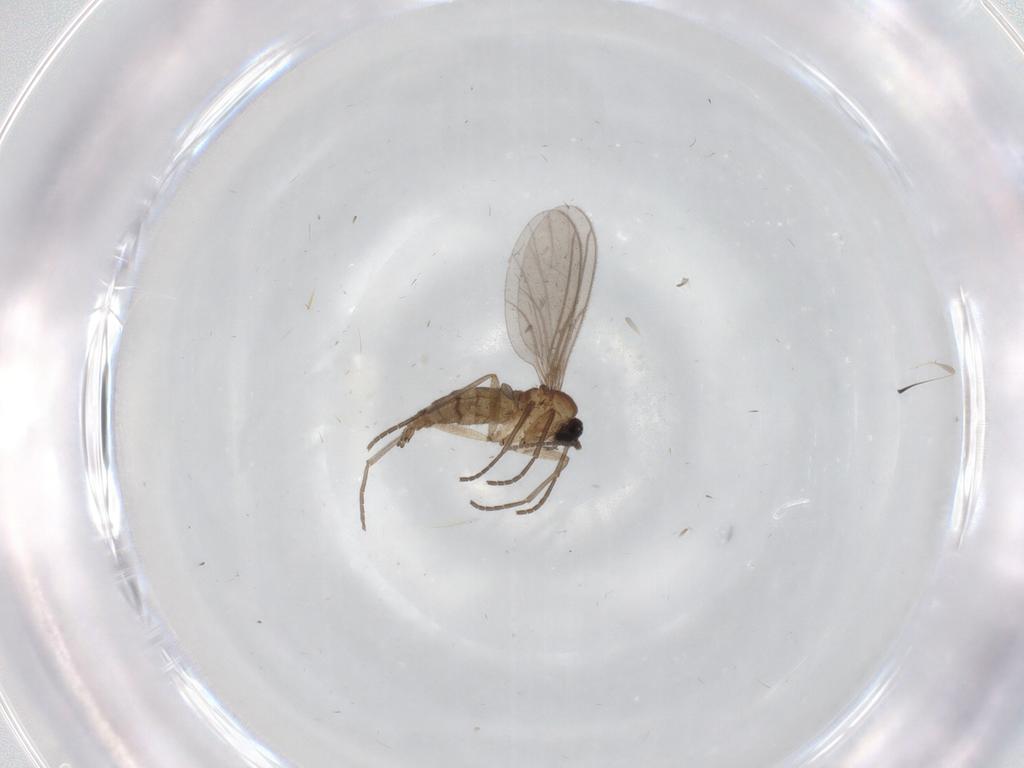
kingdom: Animalia
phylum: Arthropoda
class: Insecta
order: Diptera
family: Sciaridae
